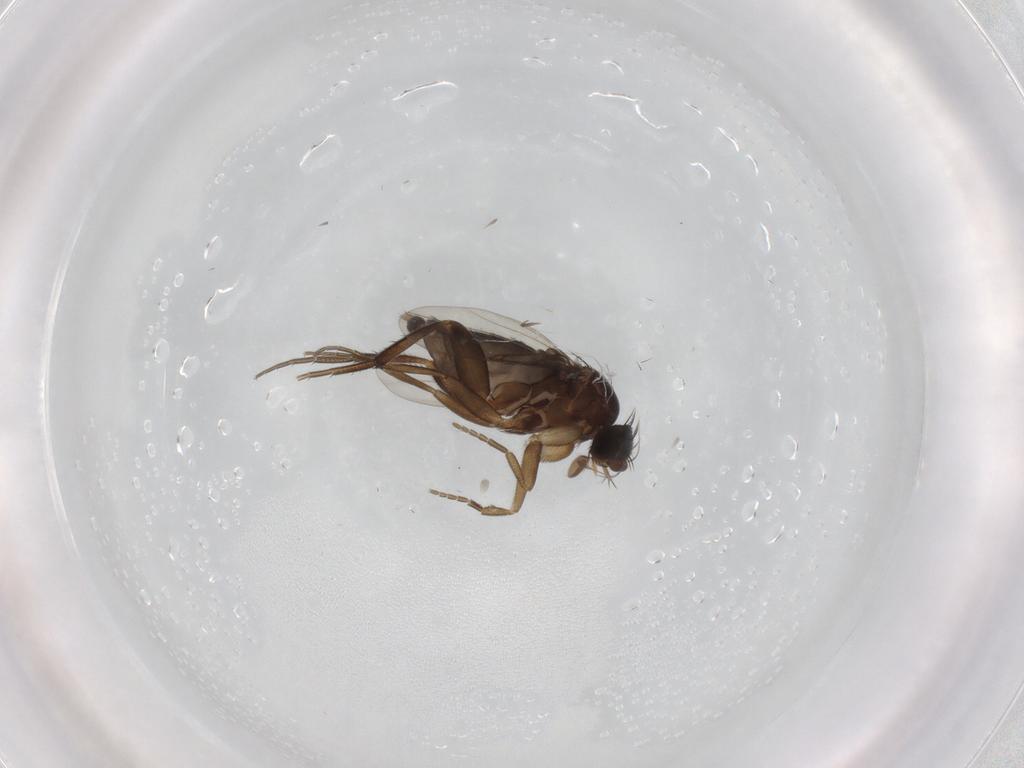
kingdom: Animalia
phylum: Arthropoda
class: Insecta
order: Diptera
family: Phoridae
